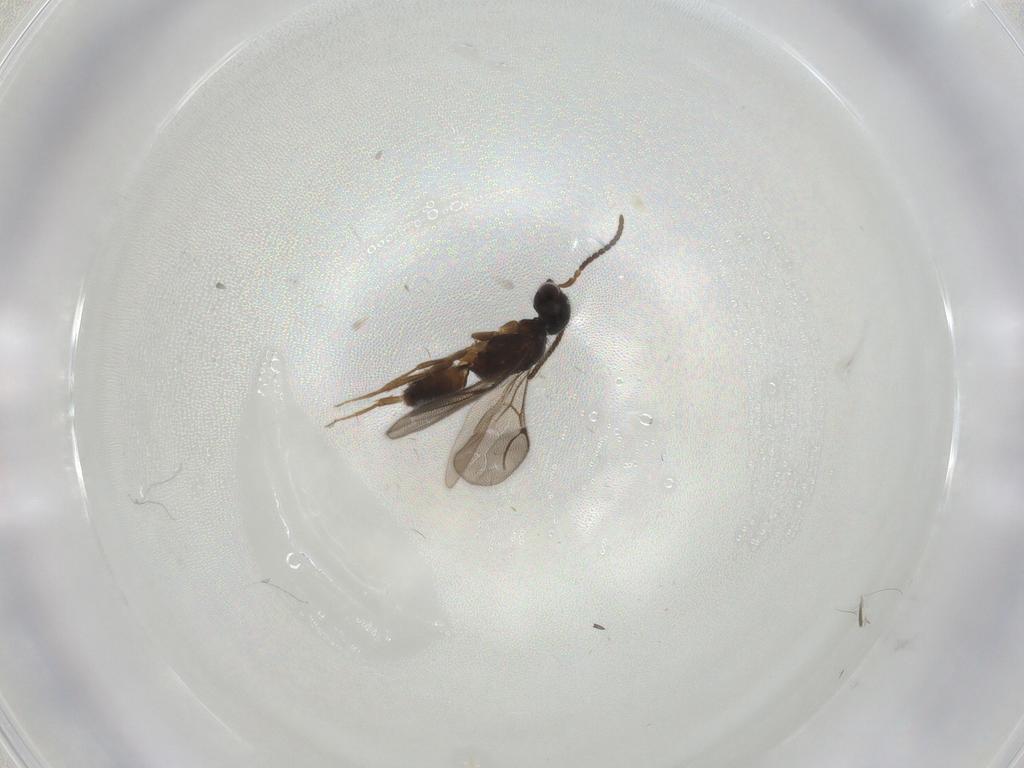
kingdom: Animalia
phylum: Arthropoda
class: Insecta
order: Hymenoptera
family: Bethylidae
